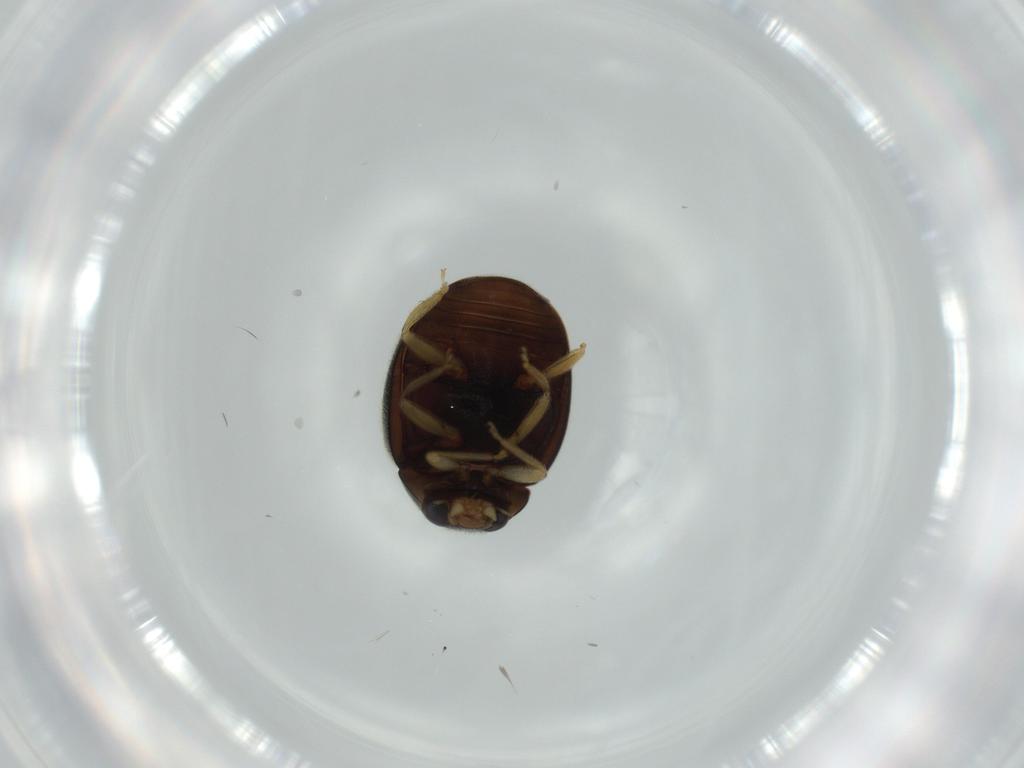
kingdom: Animalia
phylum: Arthropoda
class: Insecta
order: Coleoptera
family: Coccinellidae
